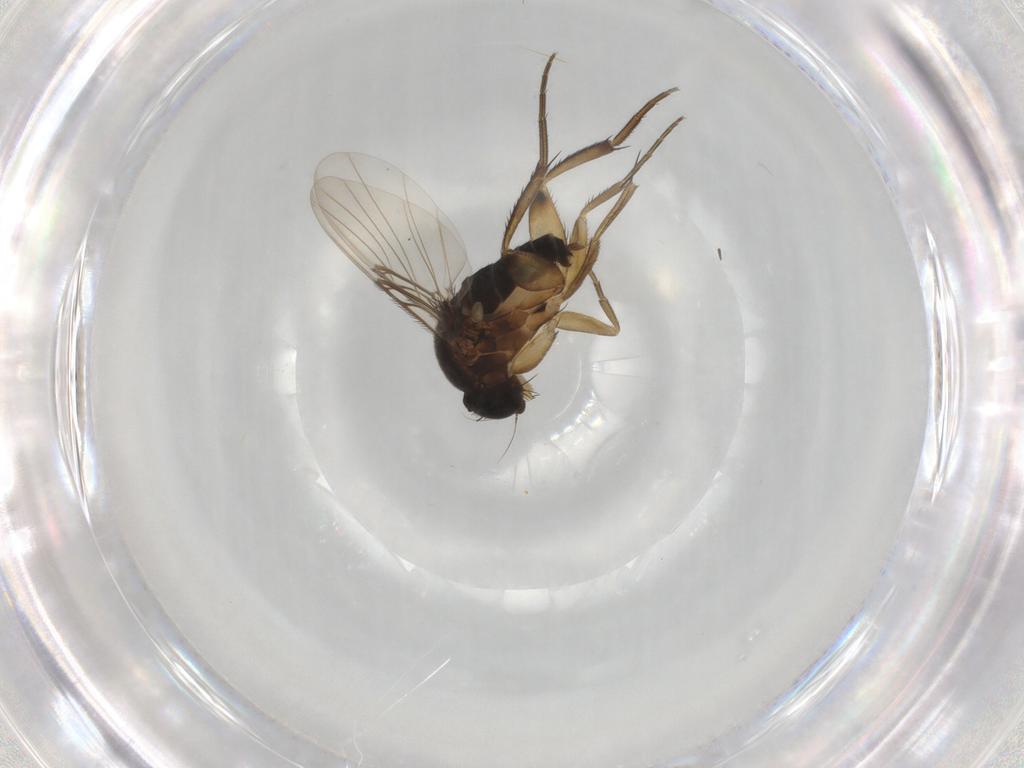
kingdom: Animalia
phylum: Arthropoda
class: Insecta
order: Diptera
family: Phoridae
